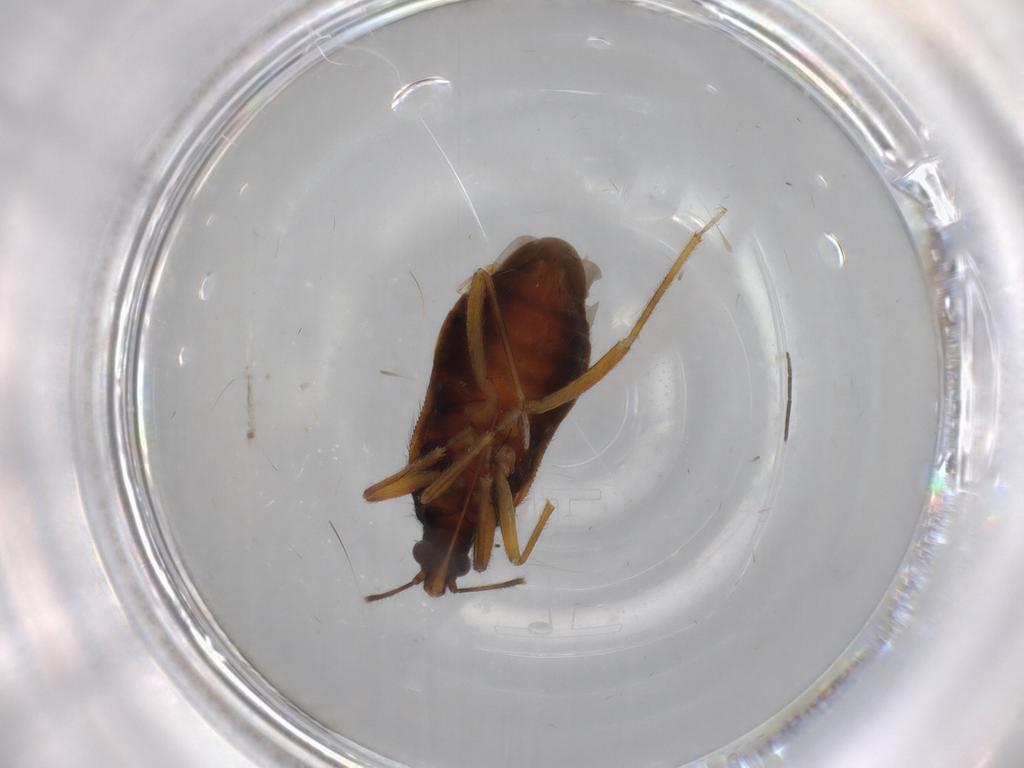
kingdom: Animalia
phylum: Arthropoda
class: Insecta
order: Hemiptera
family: Anthocoridae
